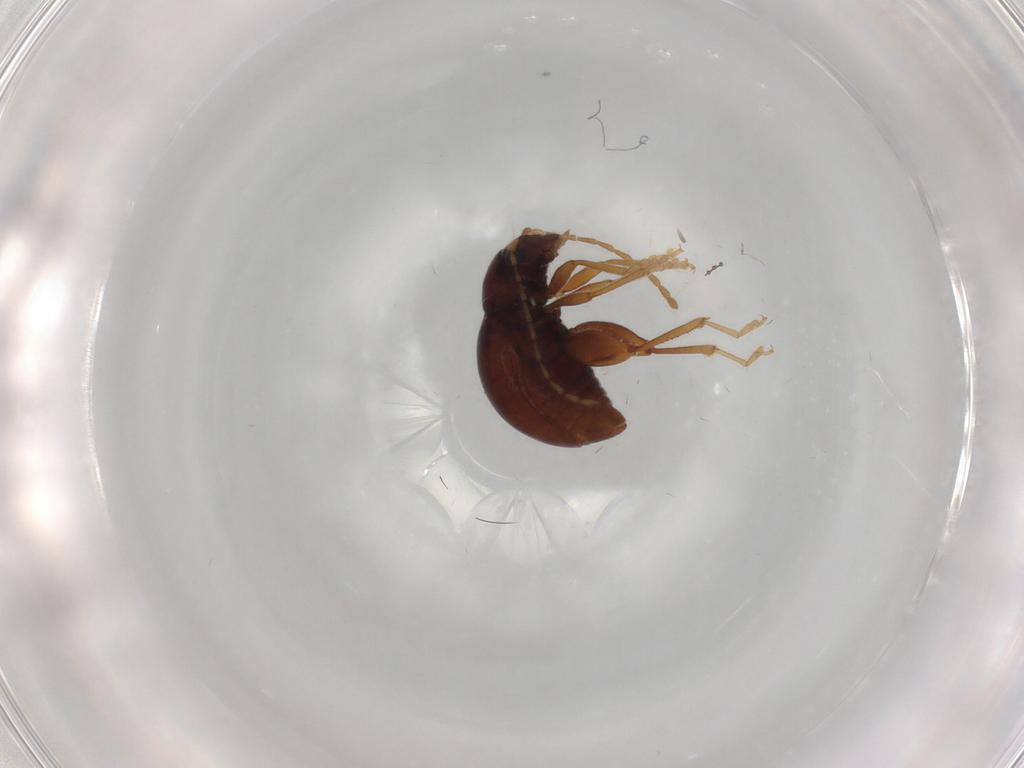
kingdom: Animalia
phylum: Arthropoda
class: Insecta
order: Coleoptera
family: Chrysomelidae
